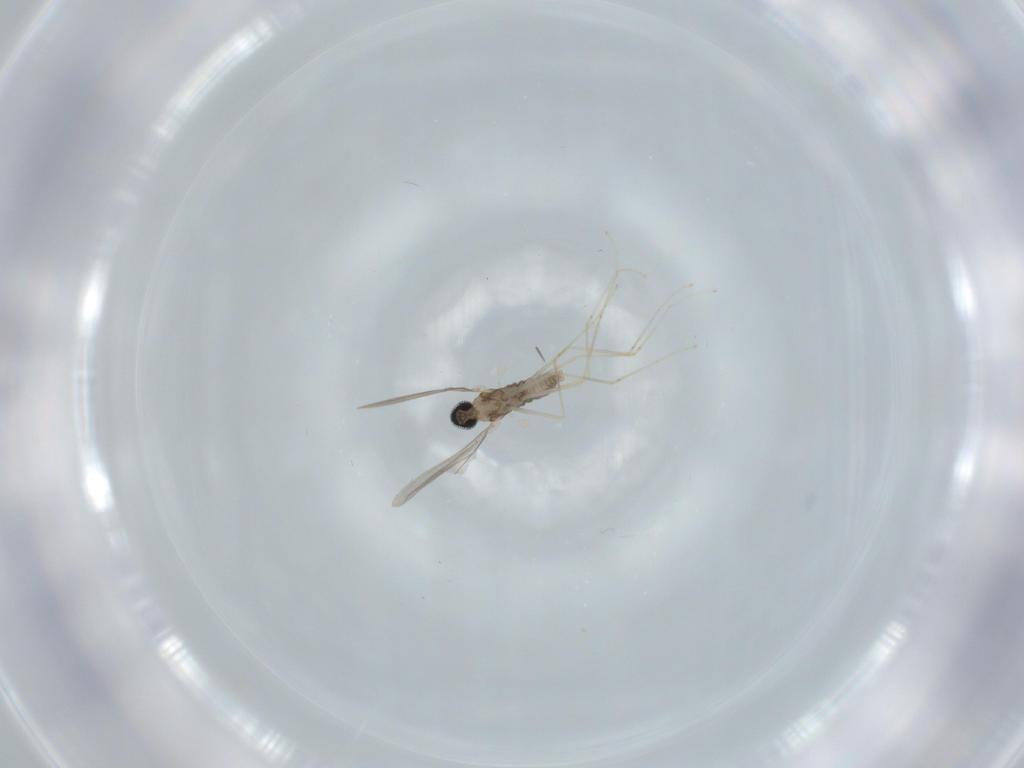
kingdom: Animalia
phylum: Arthropoda
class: Insecta
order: Diptera
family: Cecidomyiidae
